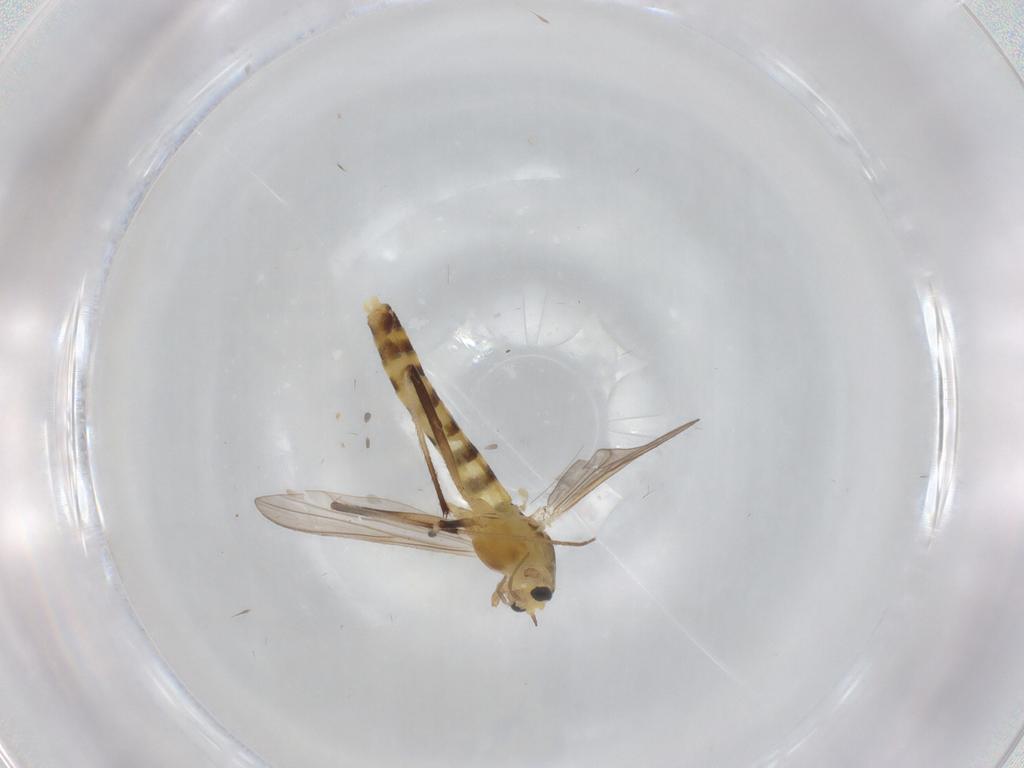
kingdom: Animalia
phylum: Arthropoda
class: Insecta
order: Diptera
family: Chironomidae
